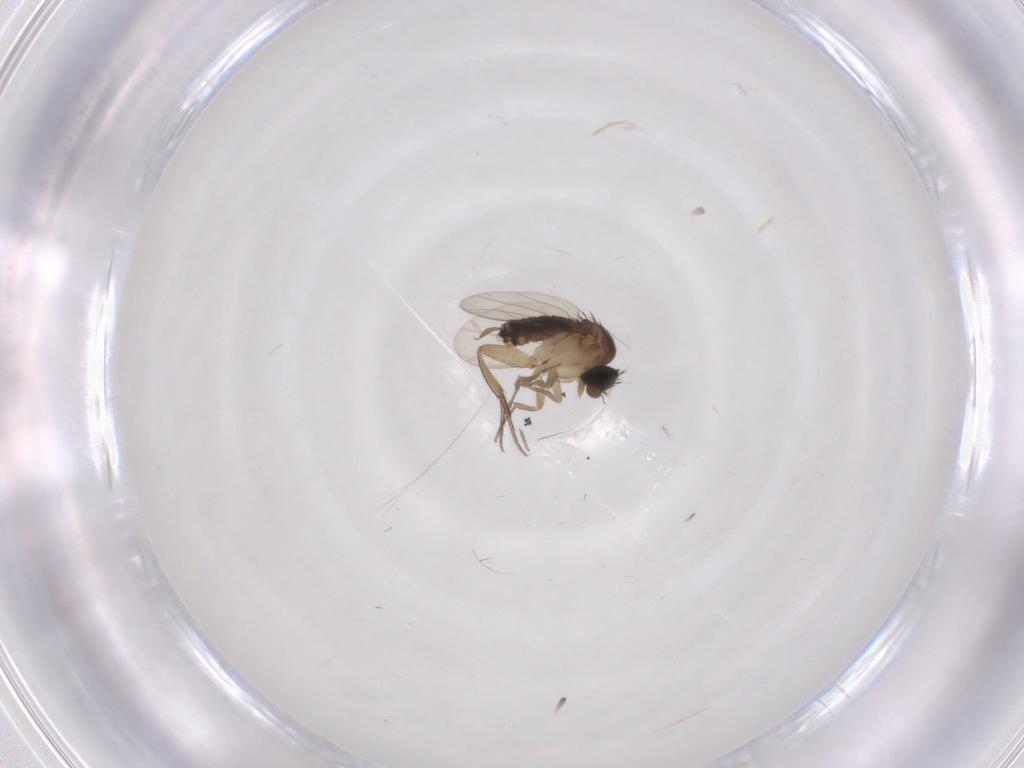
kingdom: Animalia
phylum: Arthropoda
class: Insecta
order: Diptera
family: Phoridae
